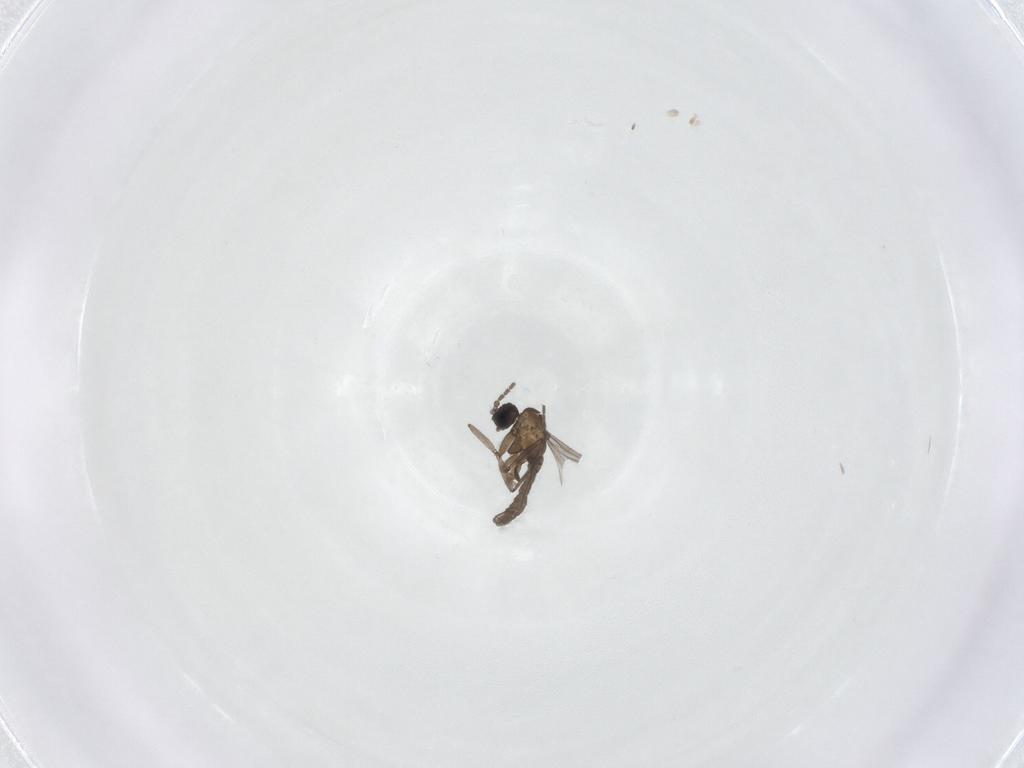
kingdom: Animalia
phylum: Arthropoda
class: Insecta
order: Diptera
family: Sciaridae
